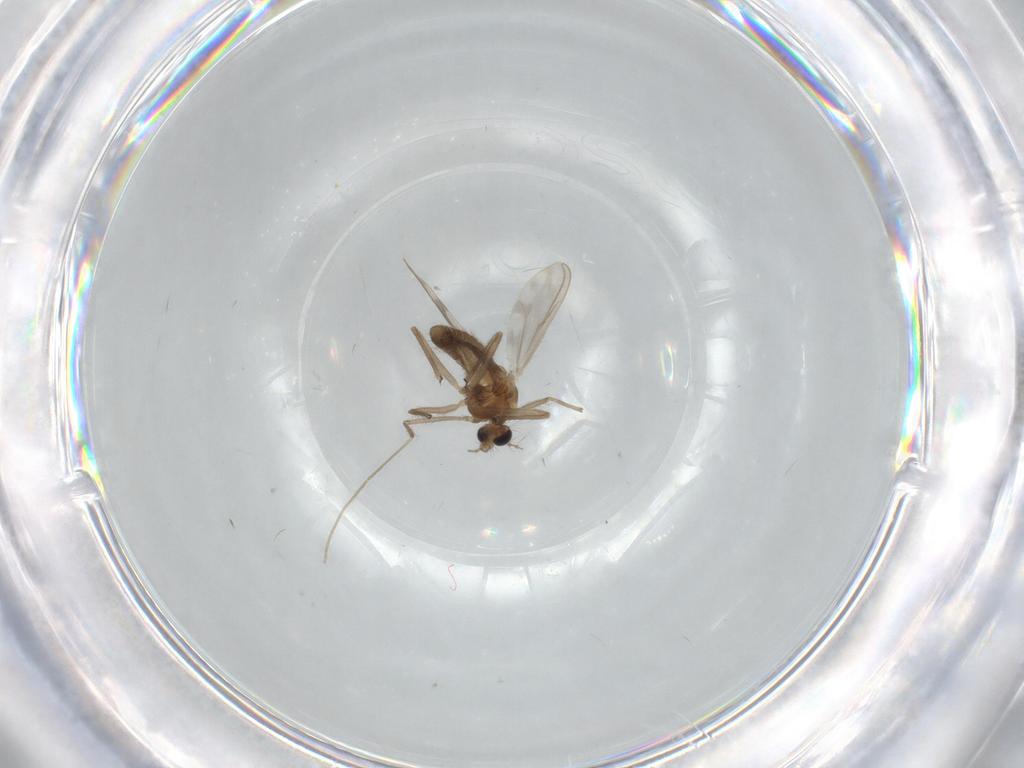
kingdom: Animalia
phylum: Arthropoda
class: Insecta
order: Diptera
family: Chironomidae
